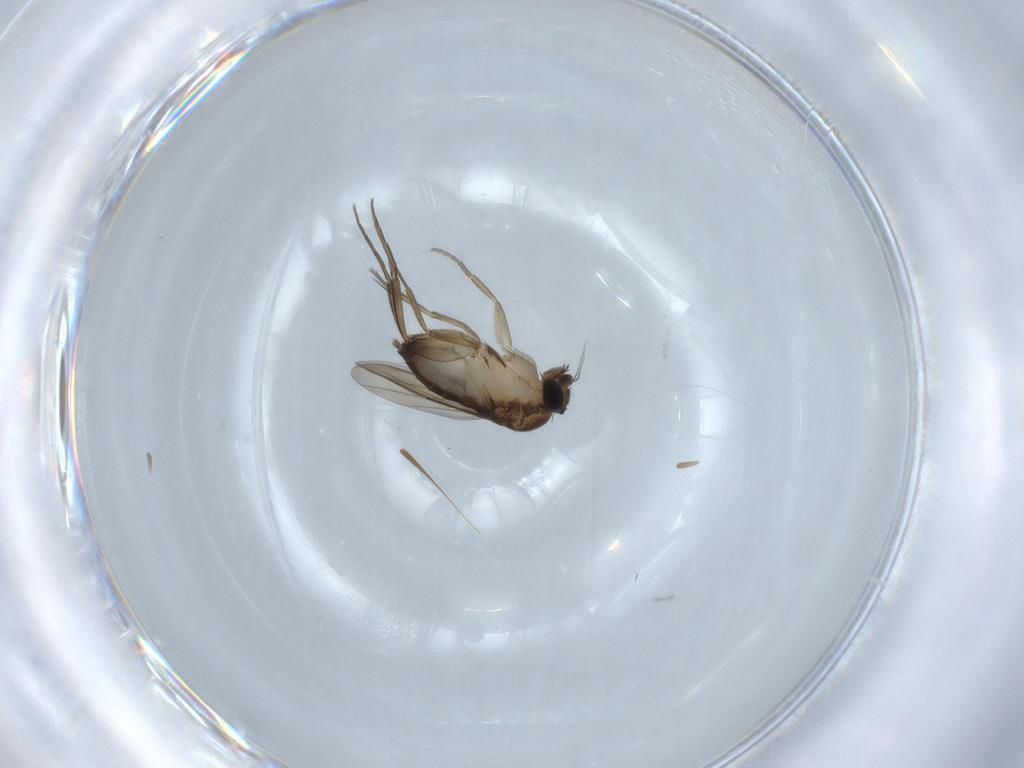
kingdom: Animalia
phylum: Arthropoda
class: Insecta
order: Diptera
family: Phoridae
